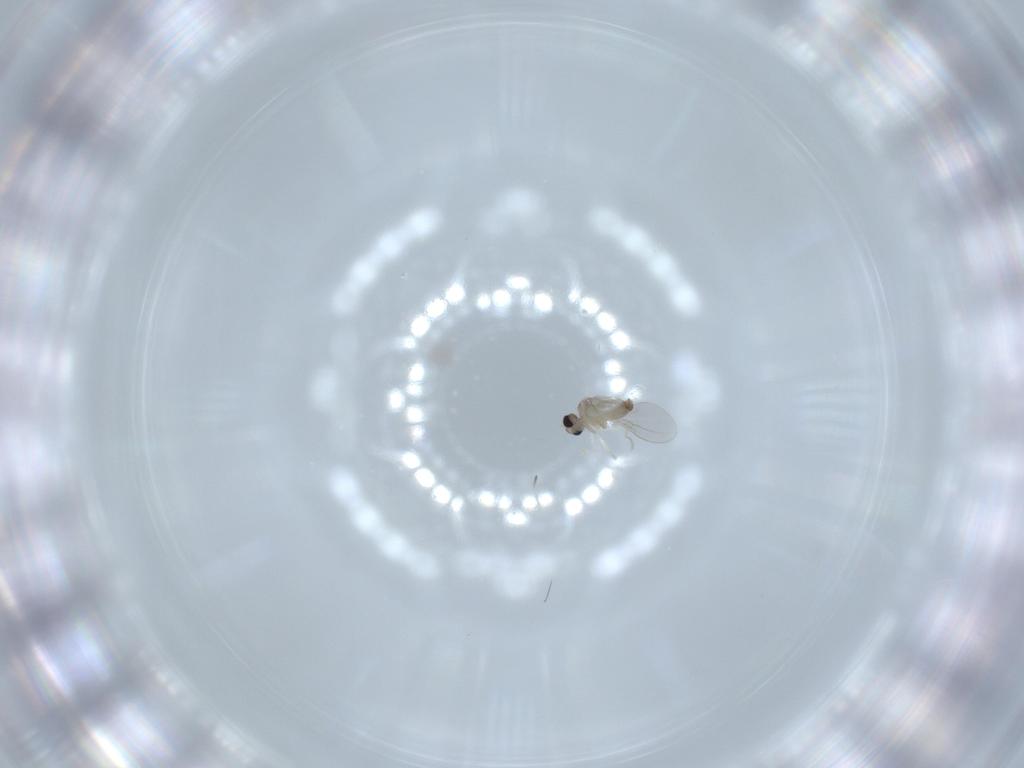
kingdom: Animalia
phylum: Arthropoda
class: Insecta
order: Diptera
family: Cecidomyiidae
